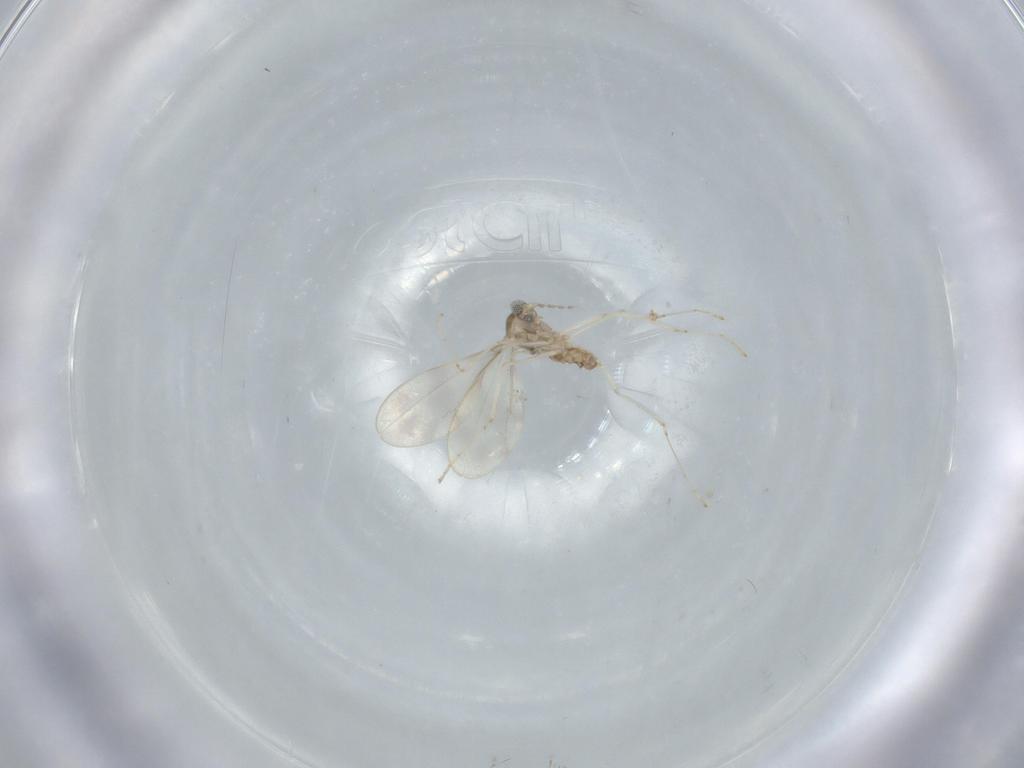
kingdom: Animalia
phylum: Arthropoda
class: Insecta
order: Diptera
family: Cecidomyiidae
